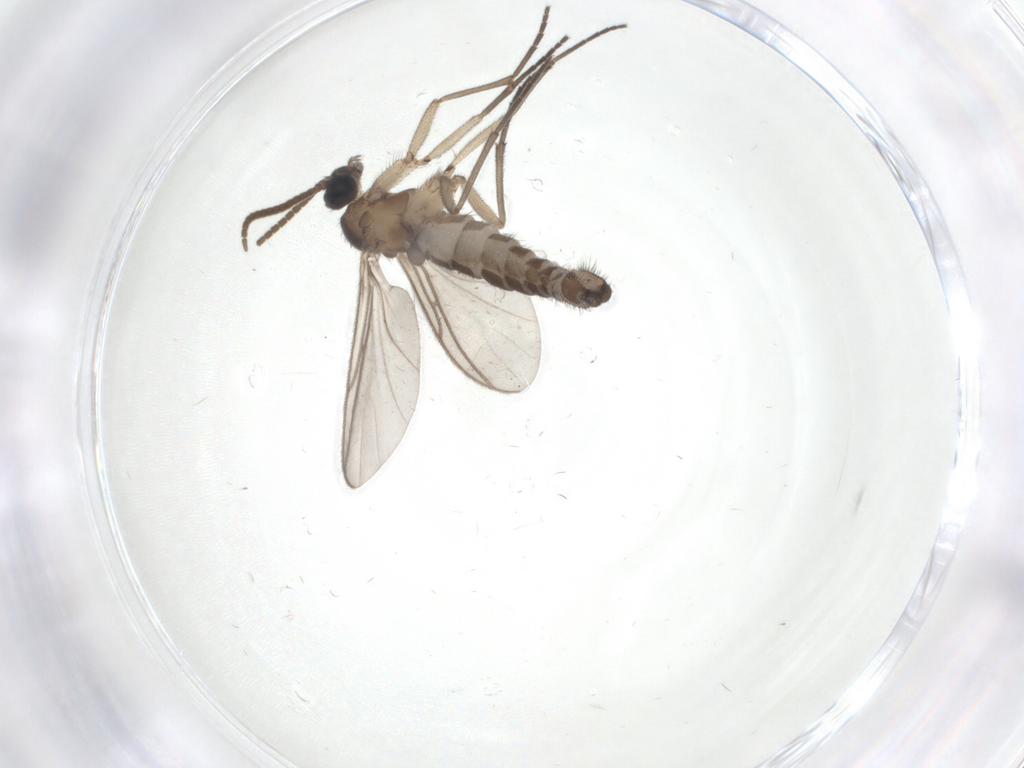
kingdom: Animalia
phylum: Arthropoda
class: Insecta
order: Diptera
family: Psychodidae
